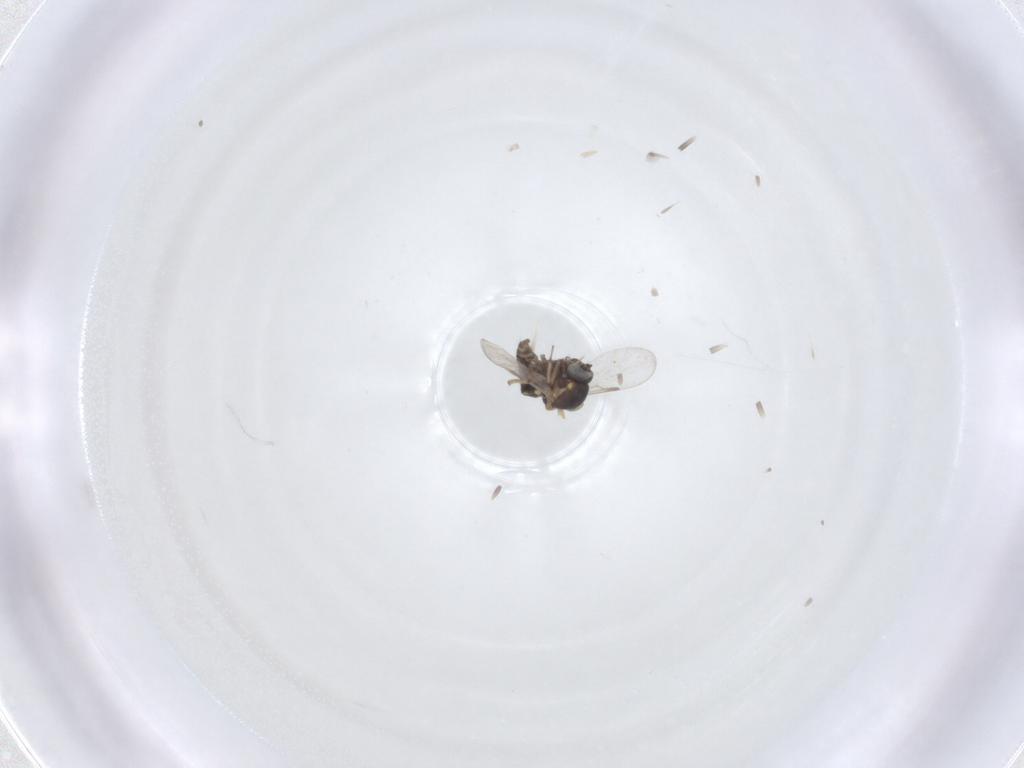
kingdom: Animalia
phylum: Arthropoda
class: Insecta
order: Diptera
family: Ceratopogonidae
